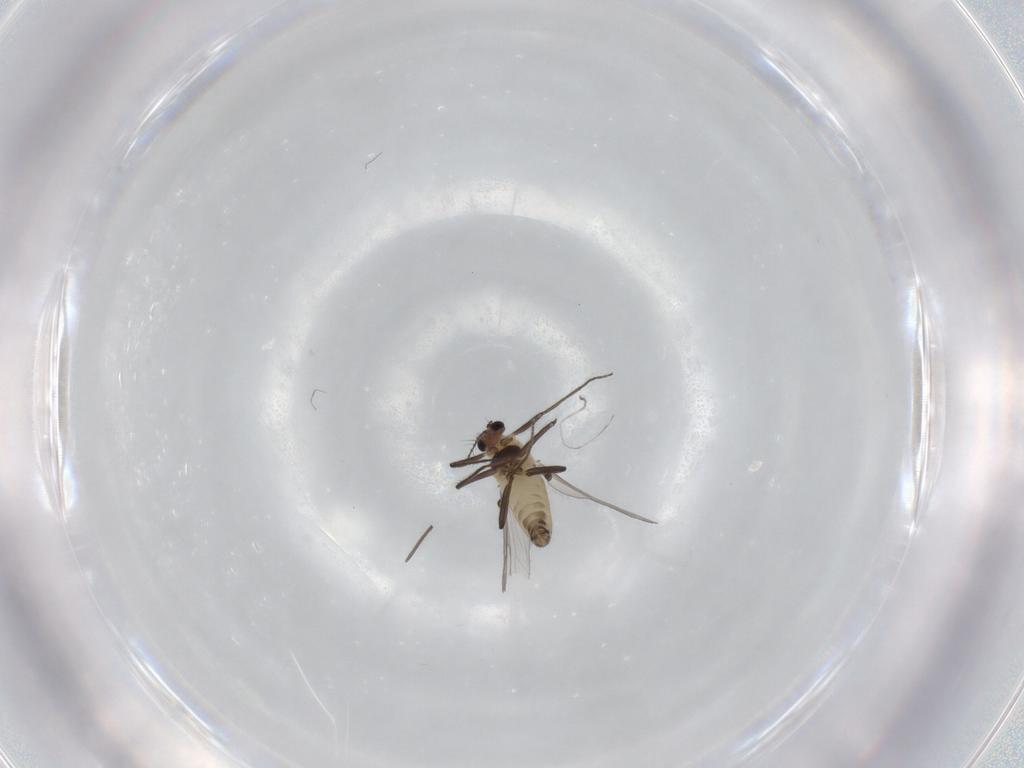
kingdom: Animalia
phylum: Arthropoda
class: Insecta
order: Diptera
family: Chironomidae
